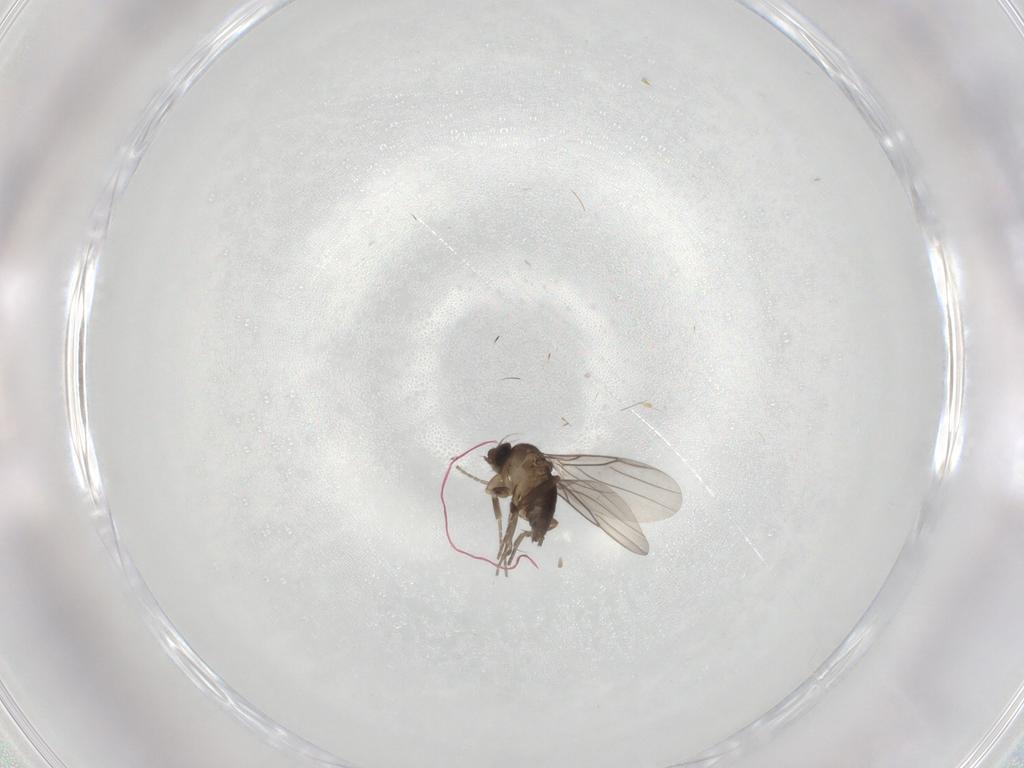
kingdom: Animalia
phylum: Arthropoda
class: Insecta
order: Diptera
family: Phoridae
